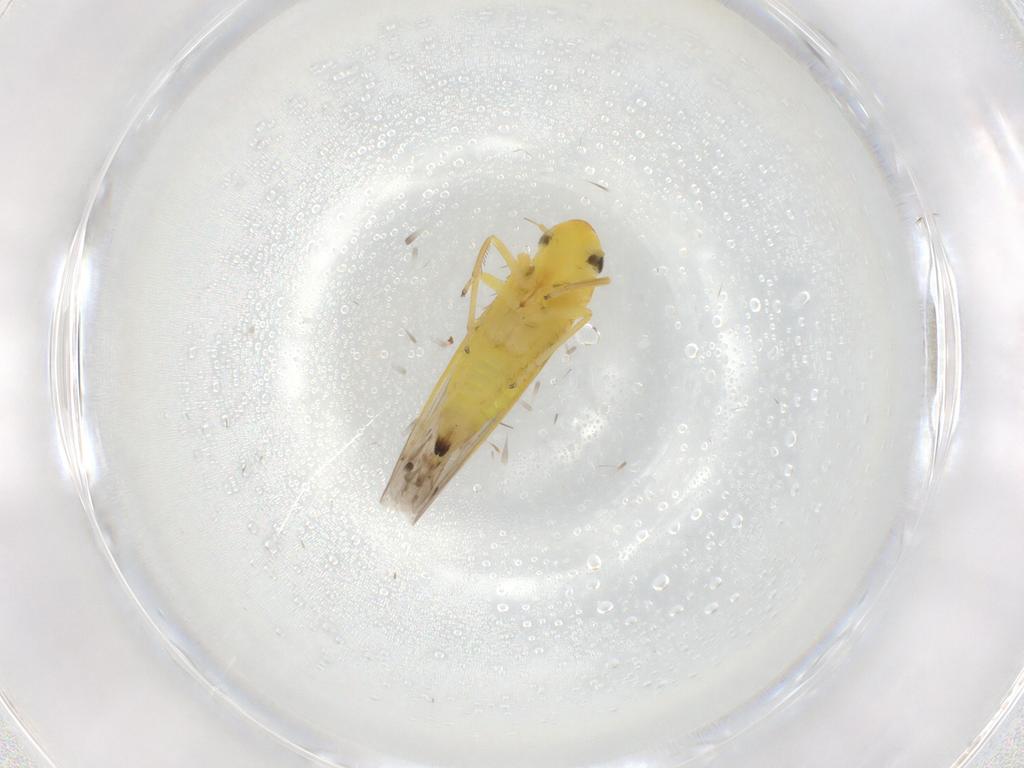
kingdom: Animalia
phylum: Arthropoda
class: Insecta
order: Hemiptera
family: Cicadellidae
